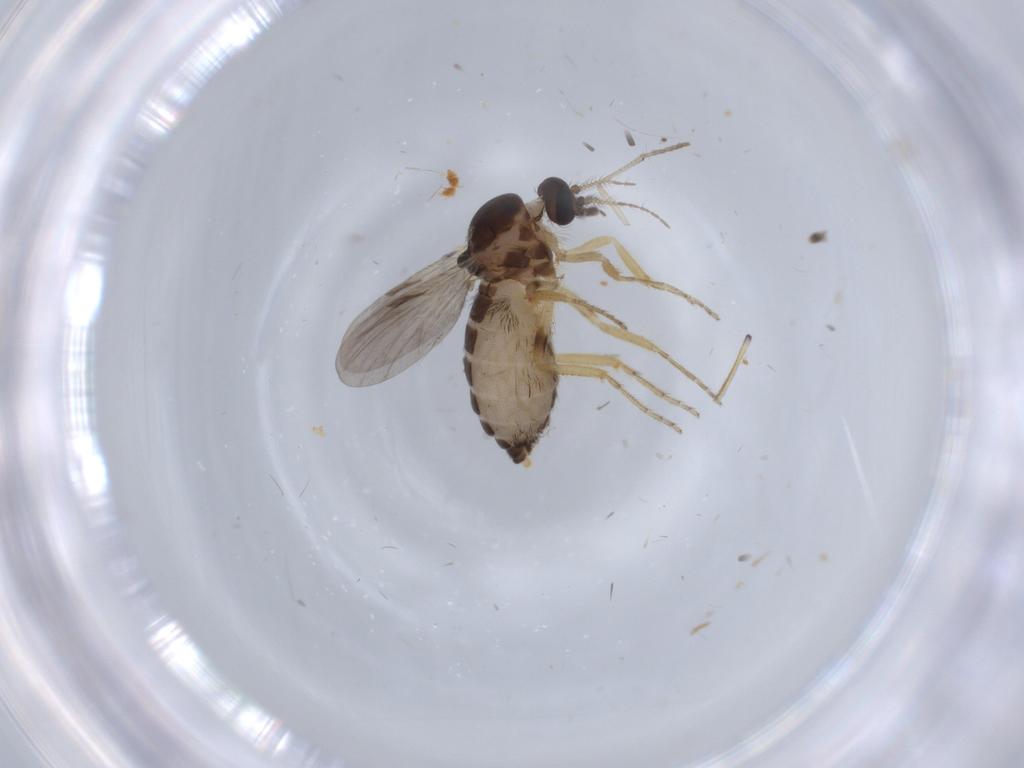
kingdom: Animalia
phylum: Arthropoda
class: Insecta
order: Diptera
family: Ceratopogonidae
